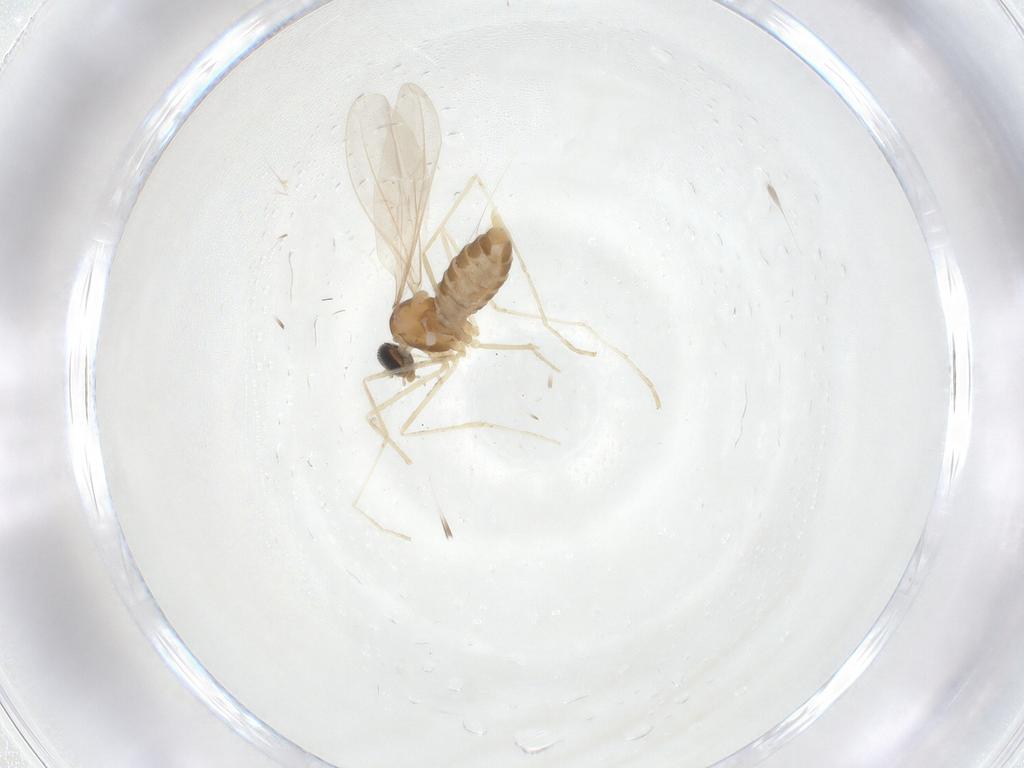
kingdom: Animalia
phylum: Arthropoda
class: Insecta
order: Diptera
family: Cecidomyiidae
